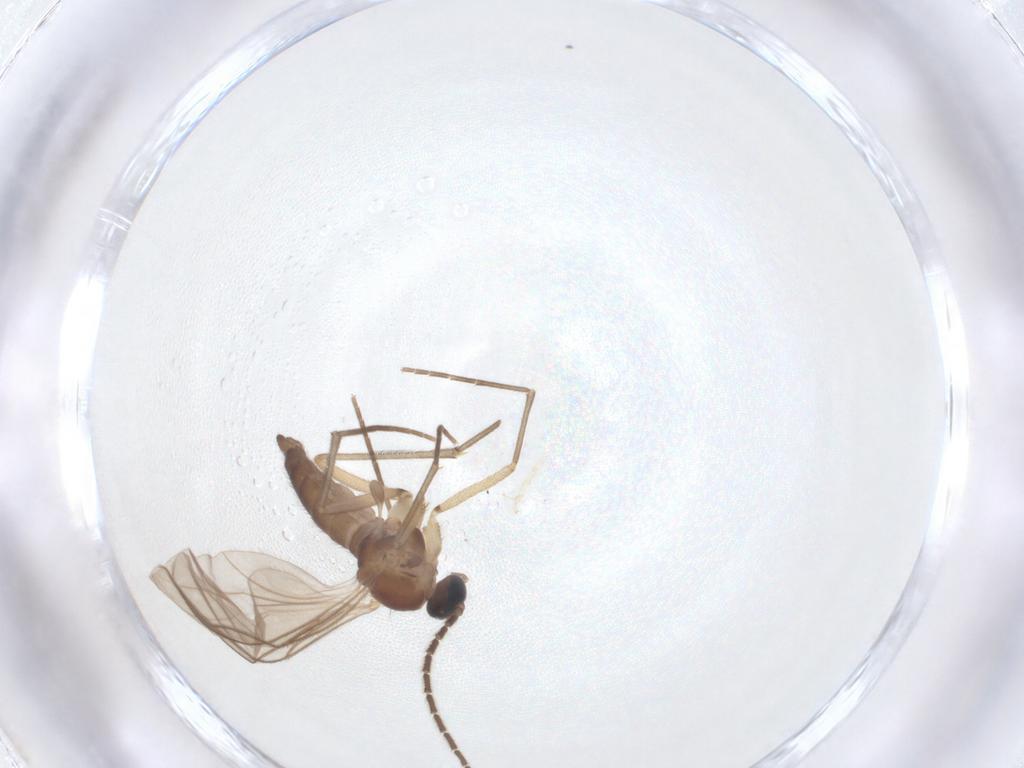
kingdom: Animalia
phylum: Arthropoda
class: Insecta
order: Diptera
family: Sciaridae
